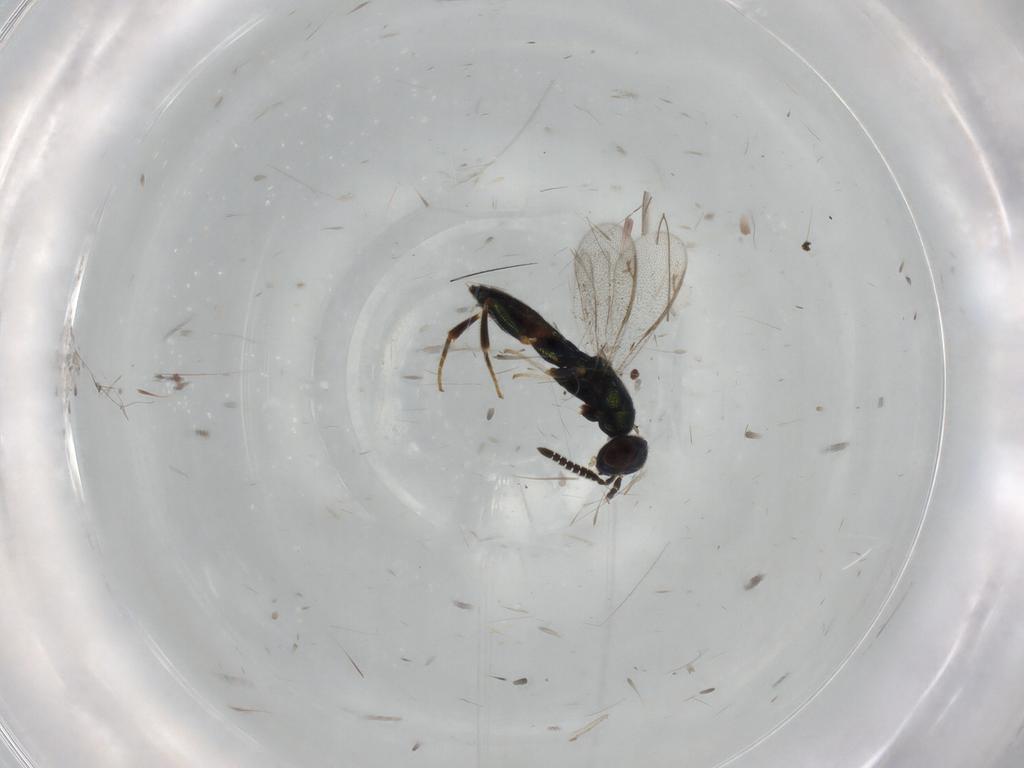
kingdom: Animalia
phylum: Arthropoda
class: Insecta
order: Hymenoptera
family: Cleonyminae
